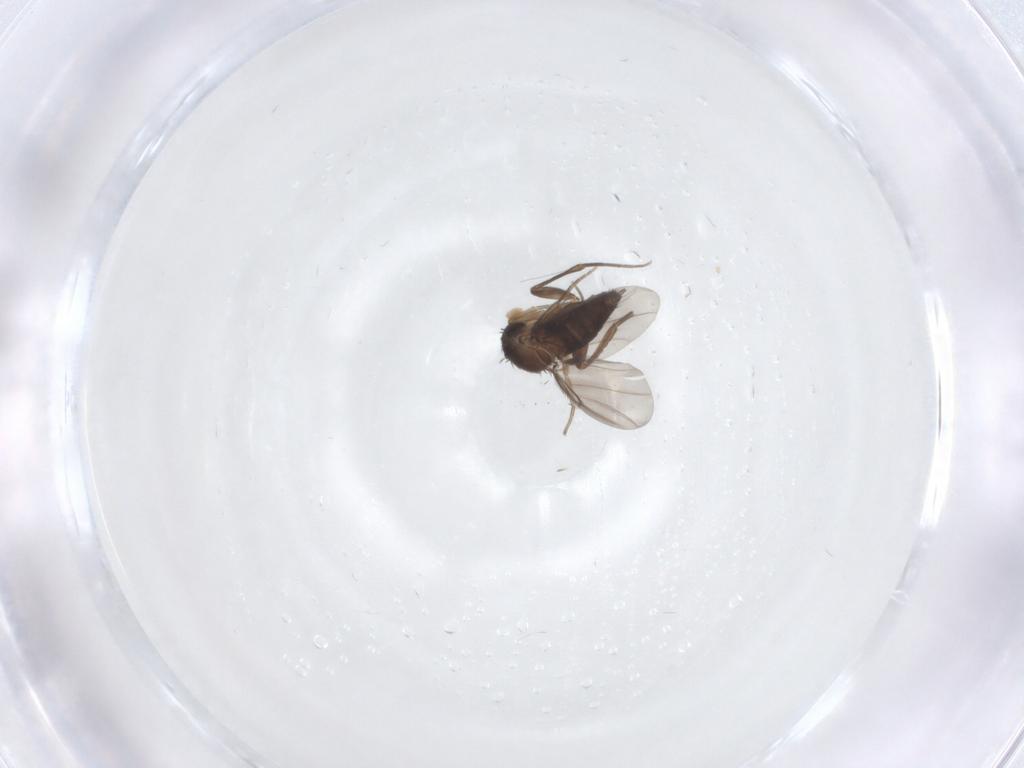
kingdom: Animalia
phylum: Arthropoda
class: Insecta
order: Diptera
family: Phoridae
